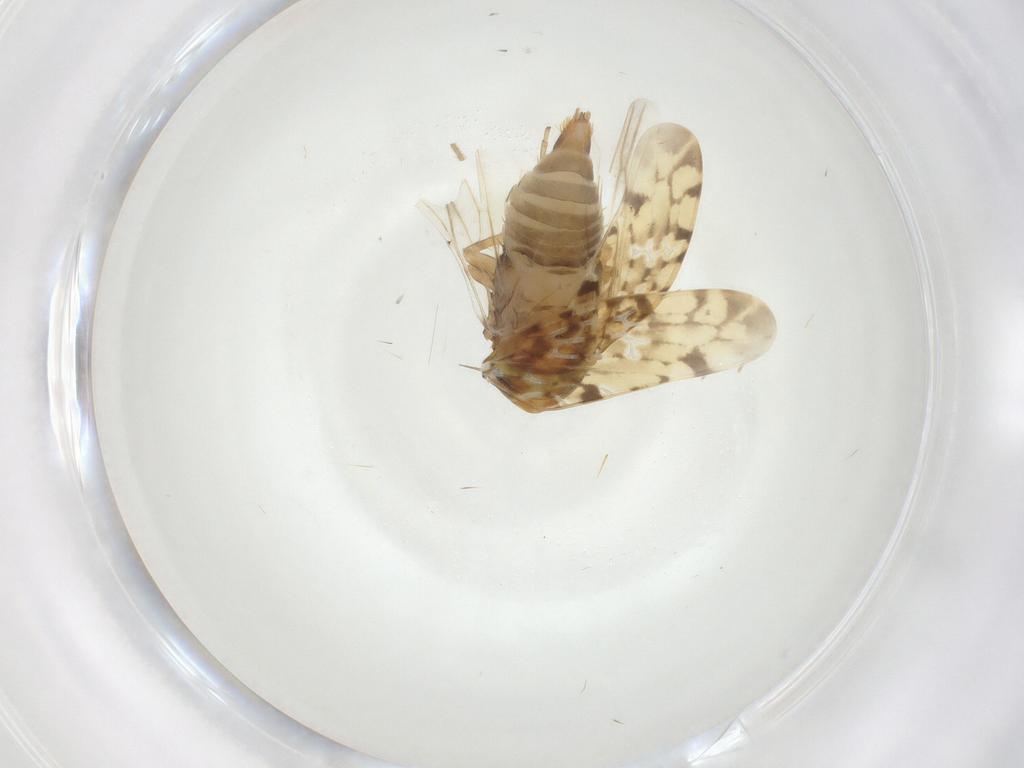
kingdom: Animalia
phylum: Arthropoda
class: Insecta
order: Hemiptera
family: Cicadellidae
